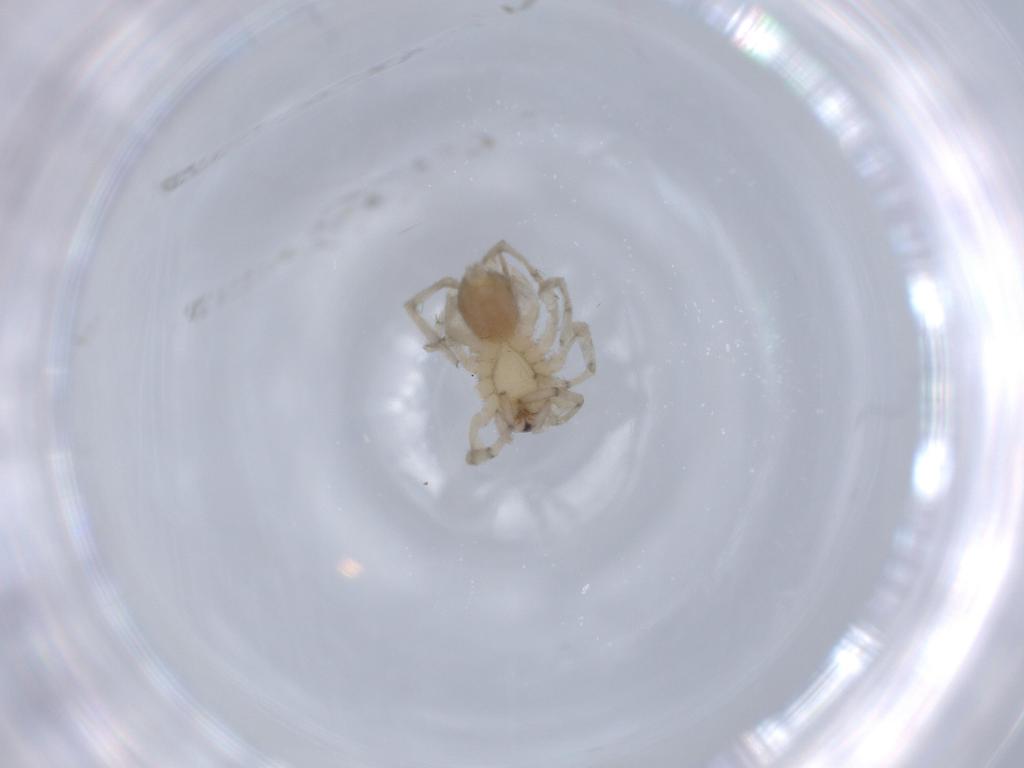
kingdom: Animalia
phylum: Arthropoda
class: Arachnida
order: Araneae
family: Gnaphosidae
